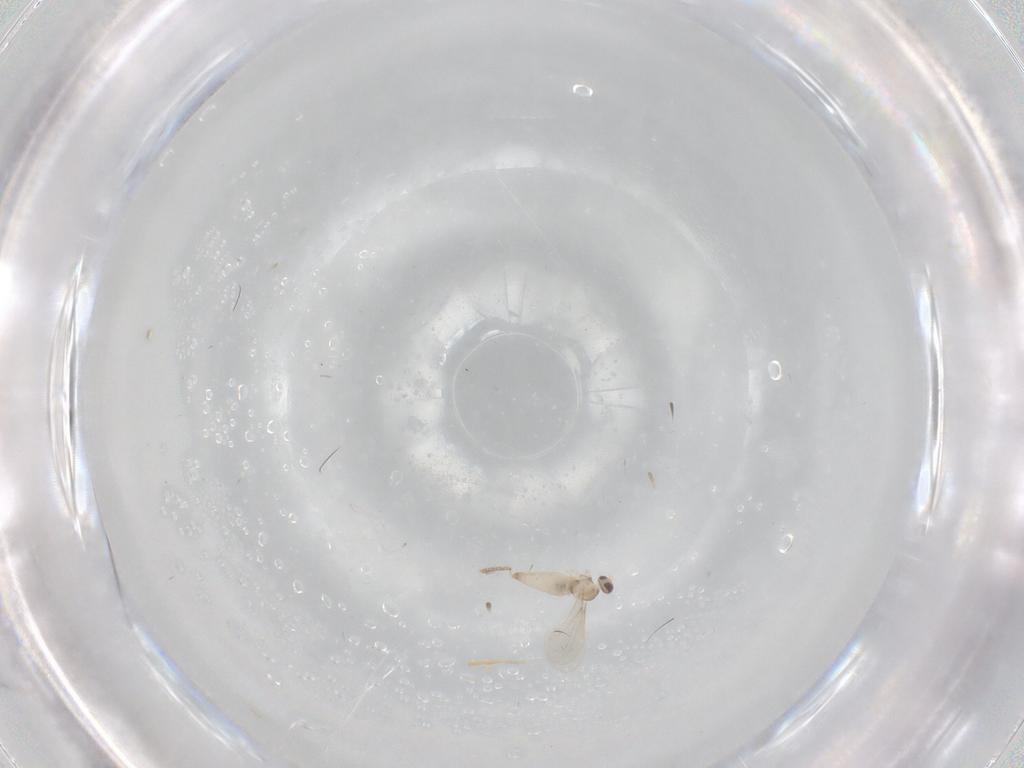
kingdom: Animalia
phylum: Arthropoda
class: Insecta
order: Diptera
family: Cecidomyiidae
